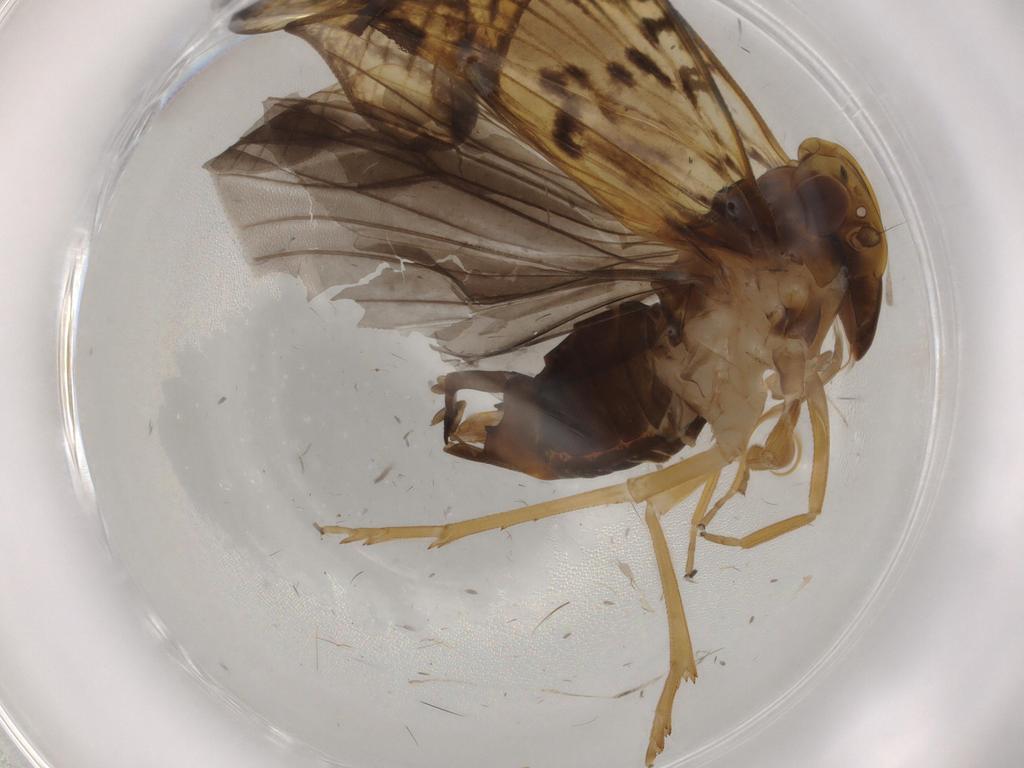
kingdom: Animalia
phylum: Arthropoda
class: Insecta
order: Hemiptera
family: Cixiidae
